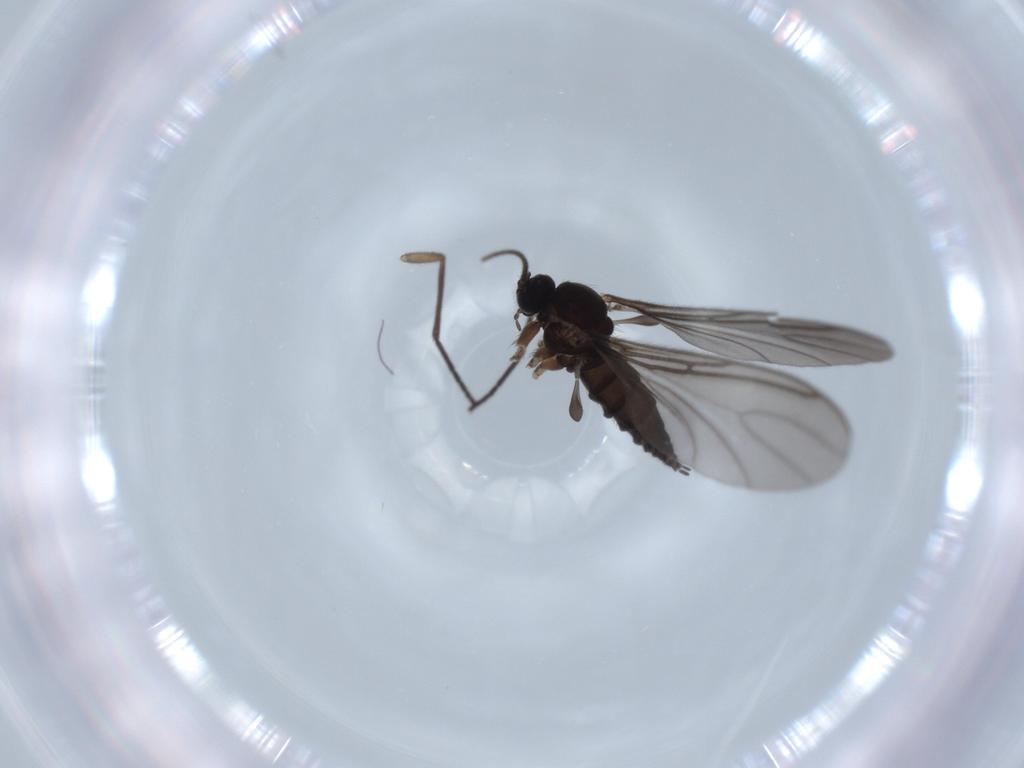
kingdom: Animalia
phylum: Arthropoda
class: Insecta
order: Diptera
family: Sciaridae
